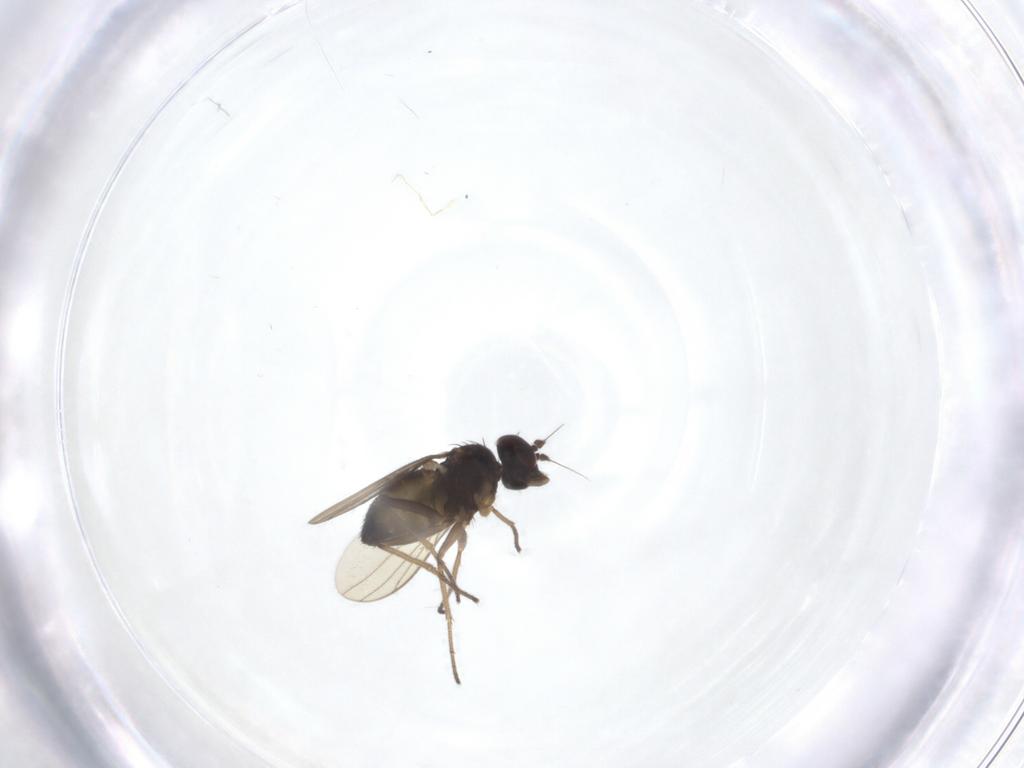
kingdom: Animalia
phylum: Arthropoda
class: Insecta
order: Diptera
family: Dolichopodidae
